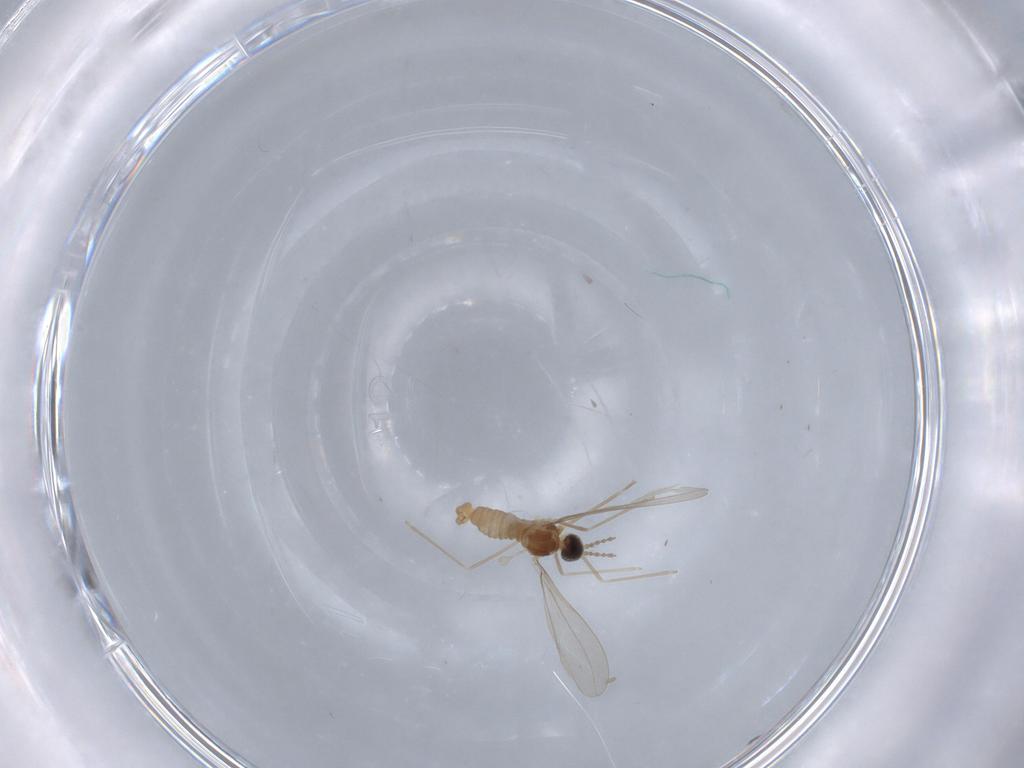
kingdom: Animalia
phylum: Arthropoda
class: Insecta
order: Diptera
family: Cecidomyiidae
